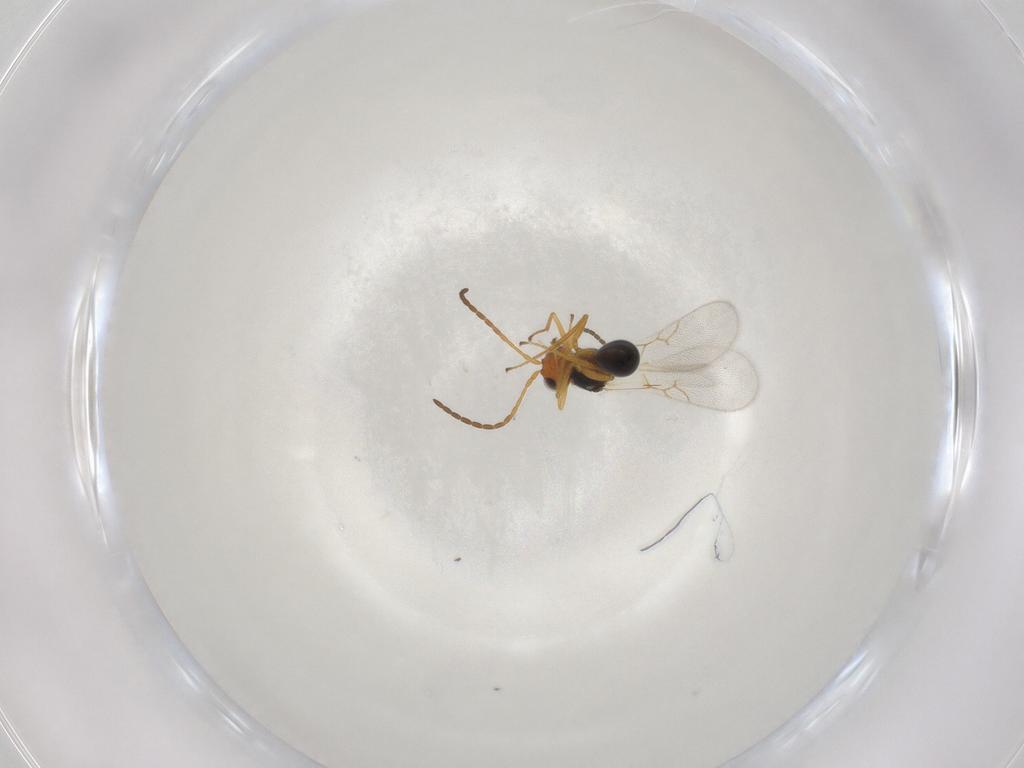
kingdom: Animalia
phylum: Arthropoda
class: Insecta
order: Hymenoptera
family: Figitidae
